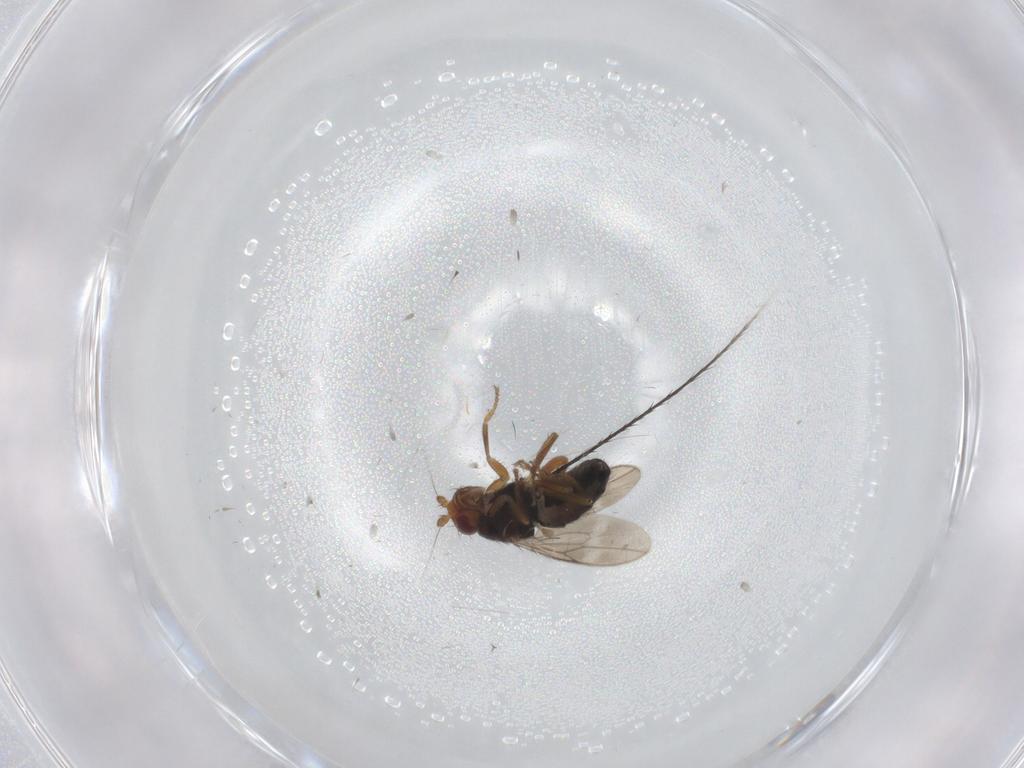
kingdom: Animalia
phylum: Arthropoda
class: Insecta
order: Diptera
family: Sphaeroceridae
